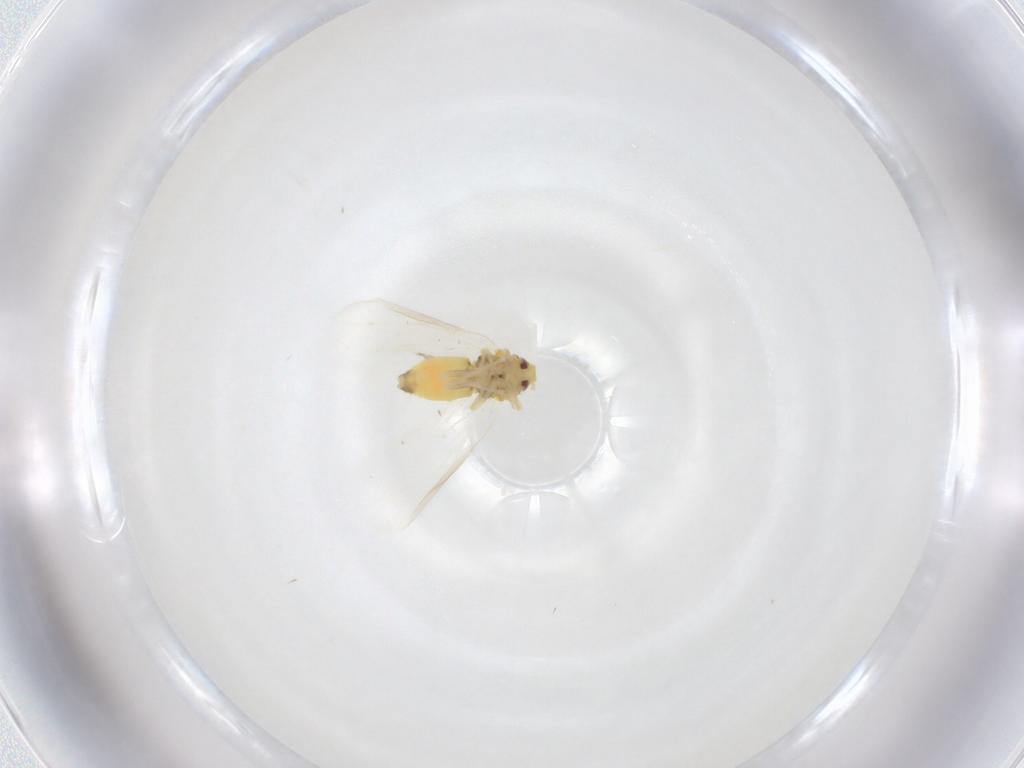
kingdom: Animalia
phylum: Arthropoda
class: Insecta
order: Hemiptera
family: Aleyrodidae
